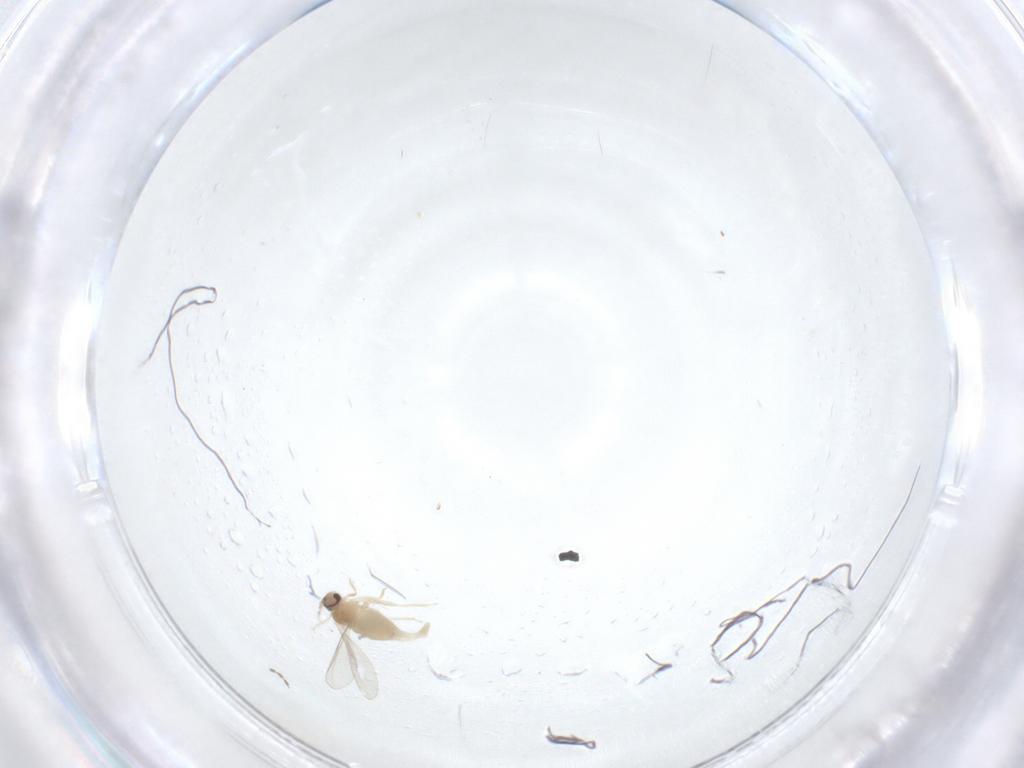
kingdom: Animalia
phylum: Arthropoda
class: Insecta
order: Diptera
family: Cecidomyiidae
